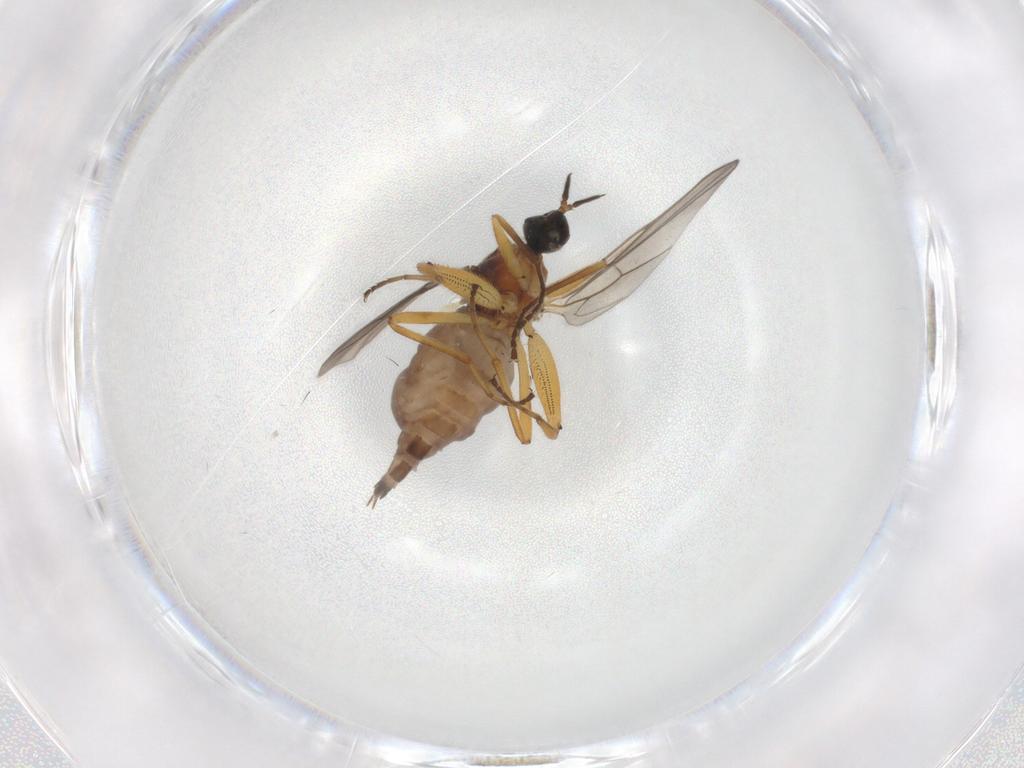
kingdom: Animalia
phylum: Arthropoda
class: Insecta
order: Diptera
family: Hybotidae
